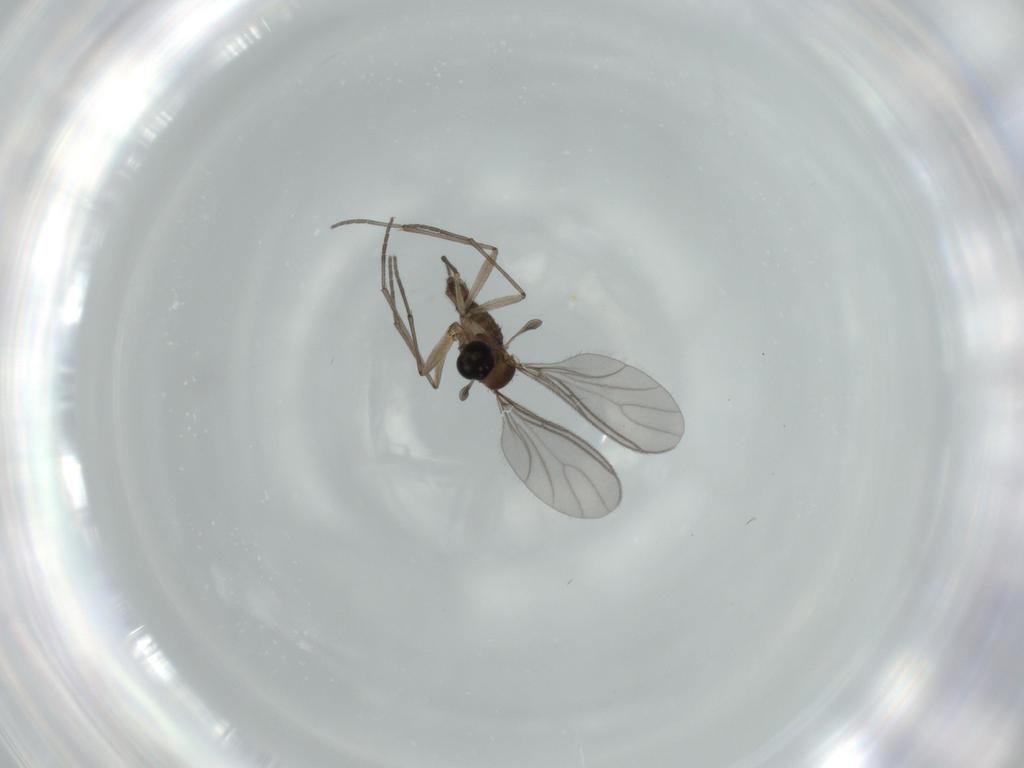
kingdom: Animalia
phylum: Arthropoda
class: Insecta
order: Diptera
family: Sciaridae
